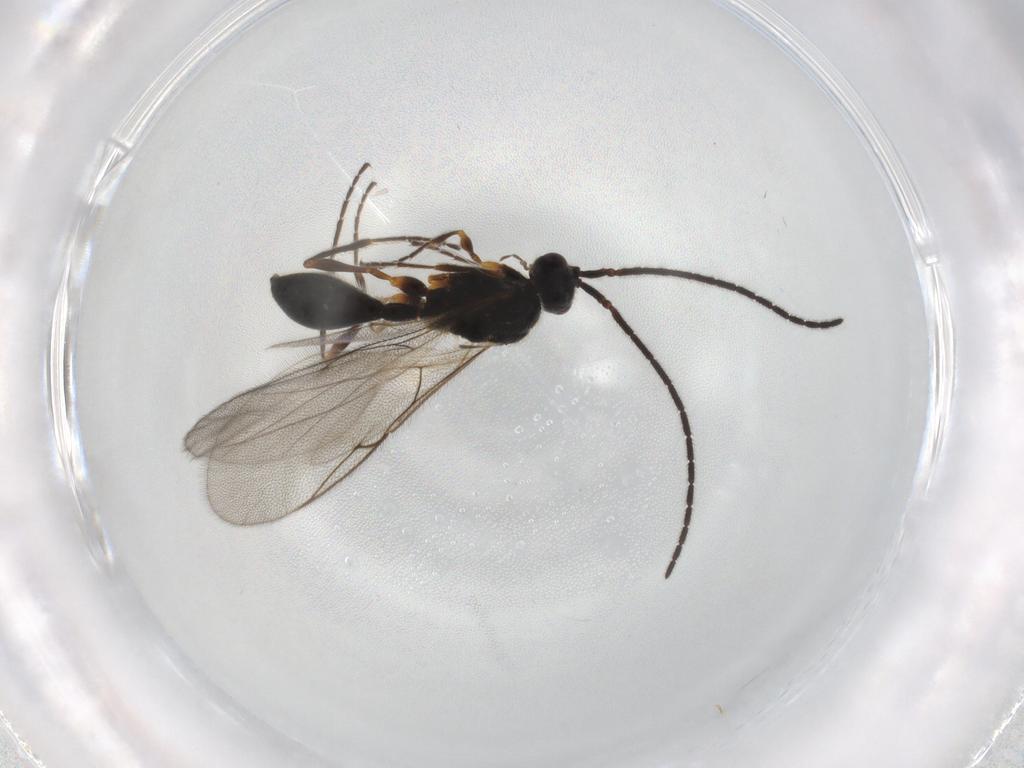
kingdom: Animalia
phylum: Arthropoda
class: Insecta
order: Hymenoptera
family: Diapriidae
